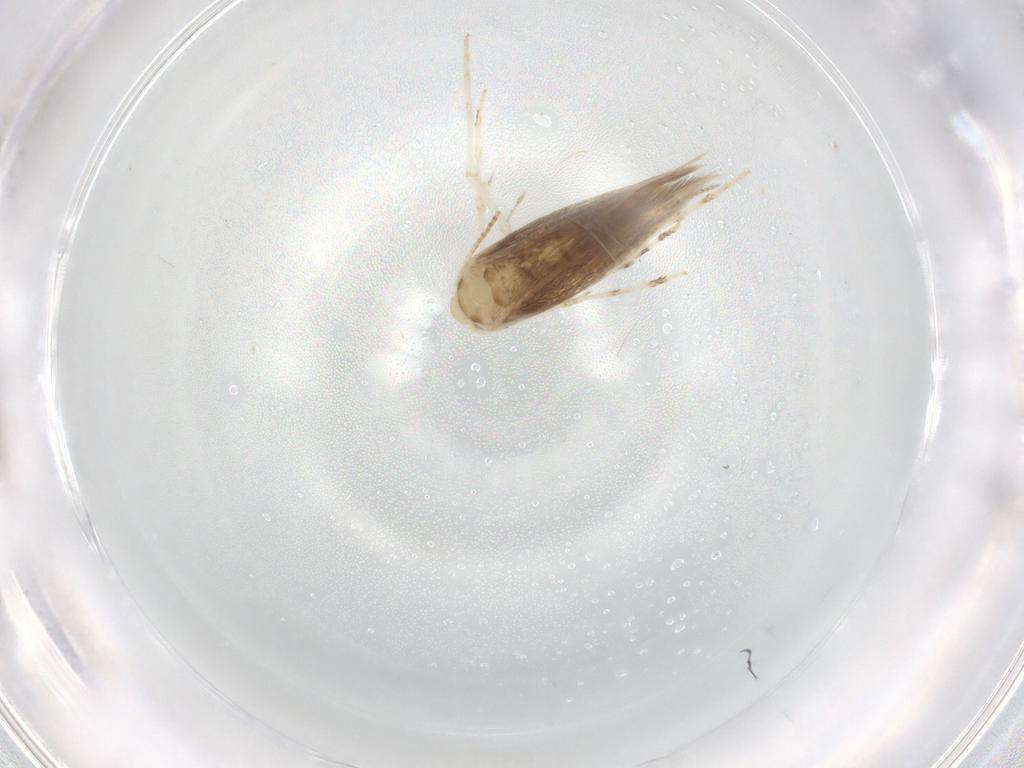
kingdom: Animalia
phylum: Arthropoda
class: Insecta
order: Lepidoptera
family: Gracillariidae
